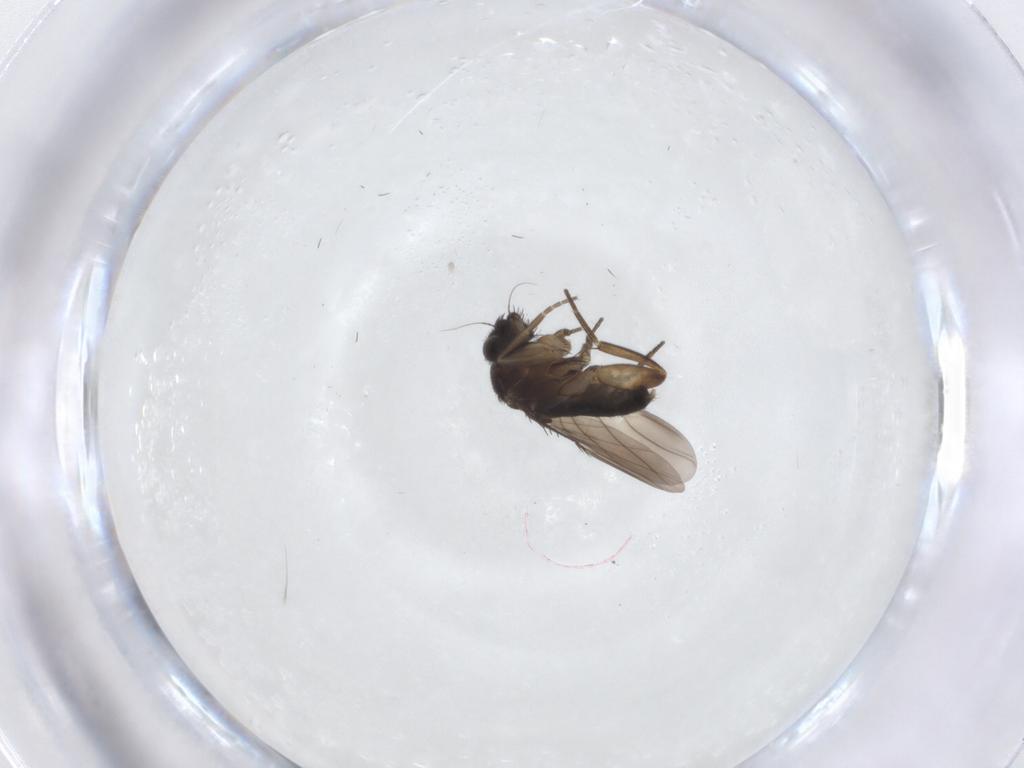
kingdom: Animalia
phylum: Arthropoda
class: Insecta
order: Diptera
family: Phoridae
